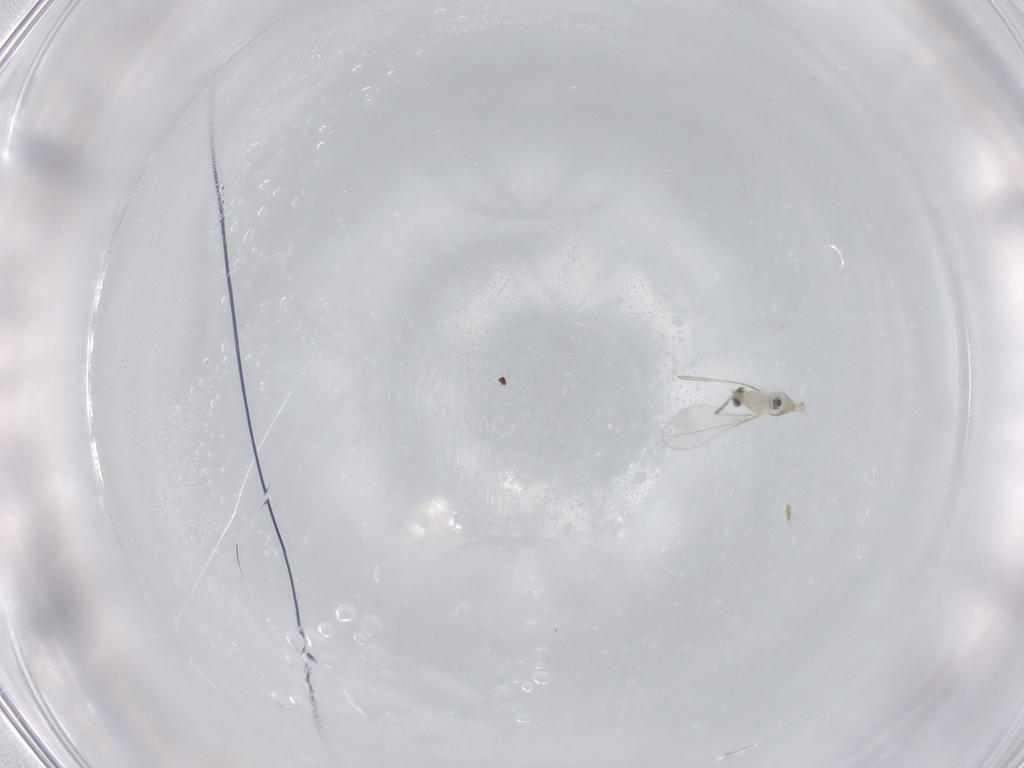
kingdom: Animalia
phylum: Arthropoda
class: Insecta
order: Diptera
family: Cecidomyiidae
